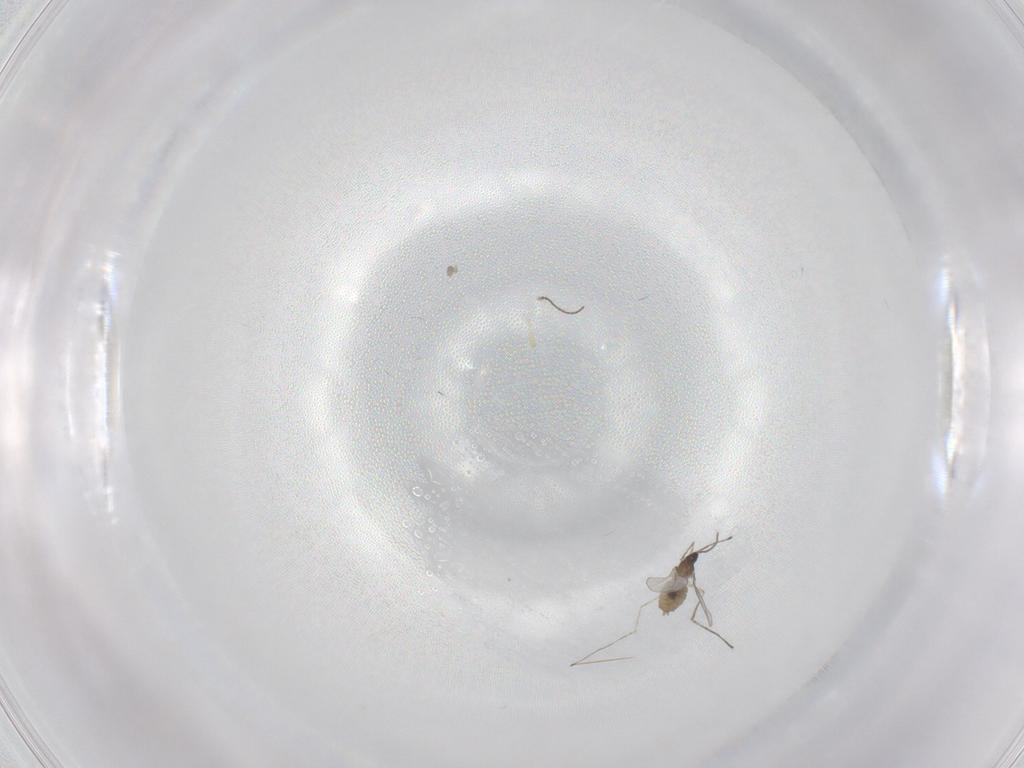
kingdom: Animalia
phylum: Arthropoda
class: Insecta
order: Diptera
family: Cecidomyiidae
